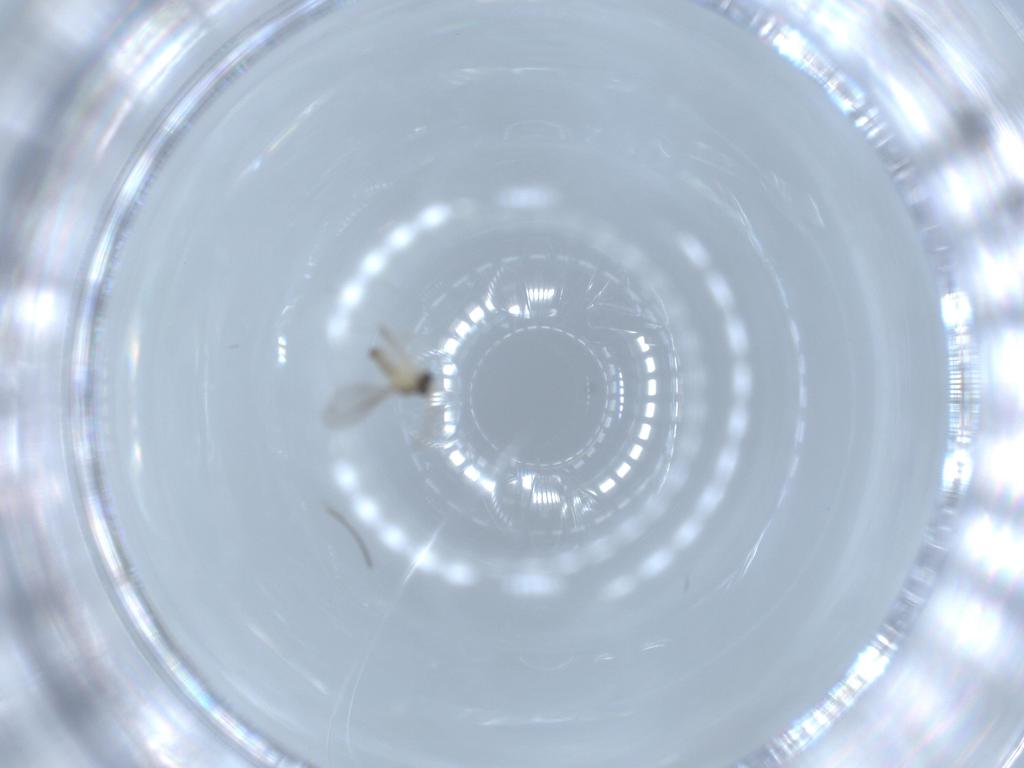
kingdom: Animalia
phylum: Arthropoda
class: Insecta
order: Diptera
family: Cecidomyiidae
